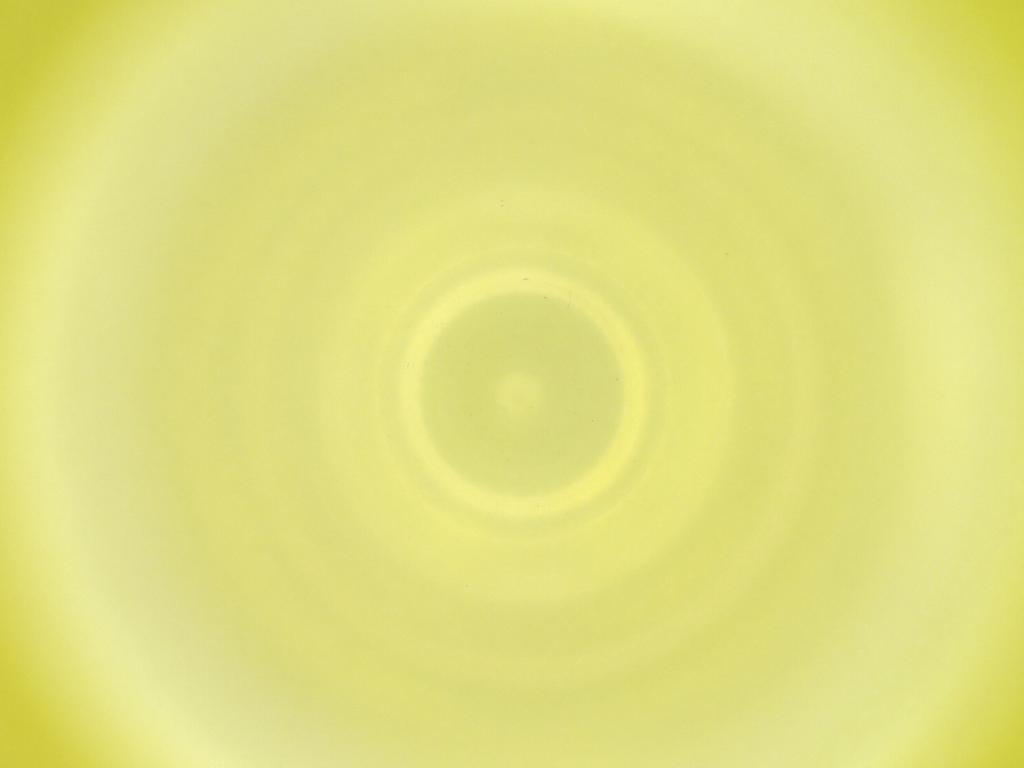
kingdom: Animalia
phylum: Arthropoda
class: Insecta
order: Diptera
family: Cecidomyiidae
